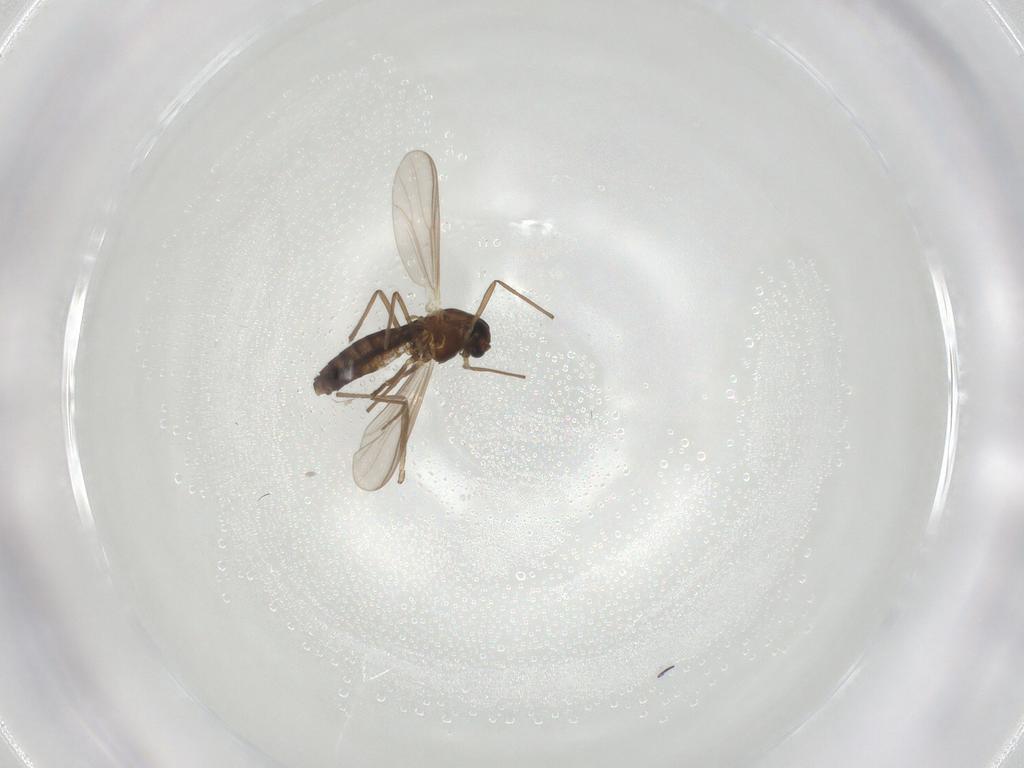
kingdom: Animalia
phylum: Arthropoda
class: Insecta
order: Diptera
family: Chironomidae
